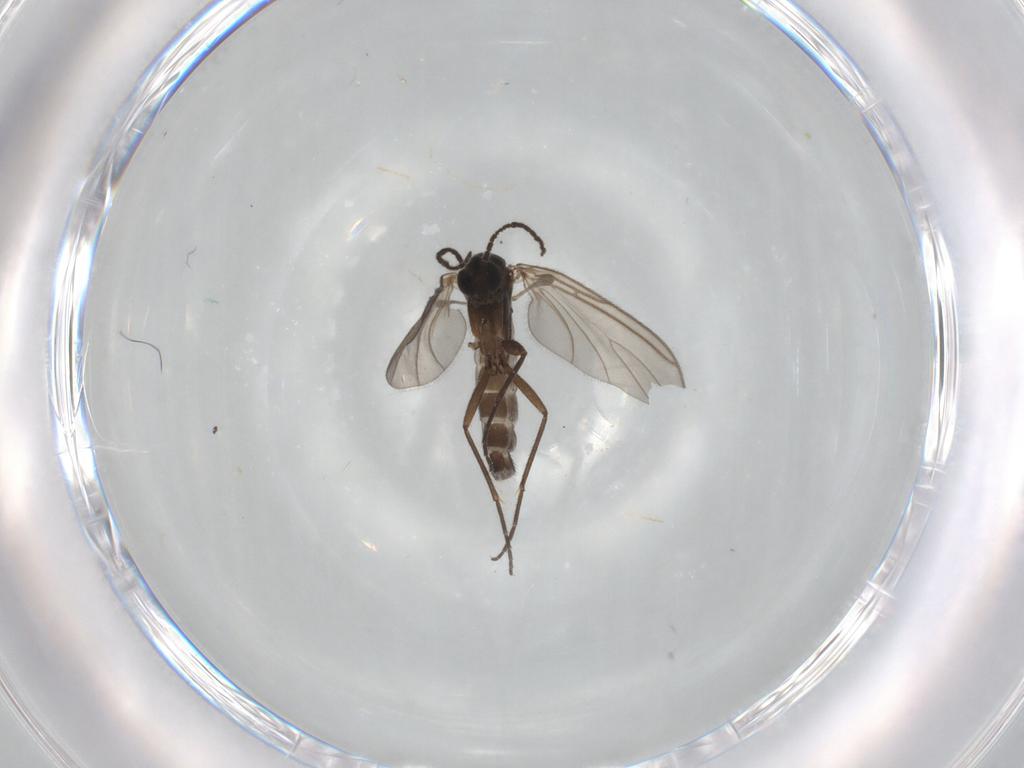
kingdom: Animalia
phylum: Arthropoda
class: Insecta
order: Diptera
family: Sciaridae
